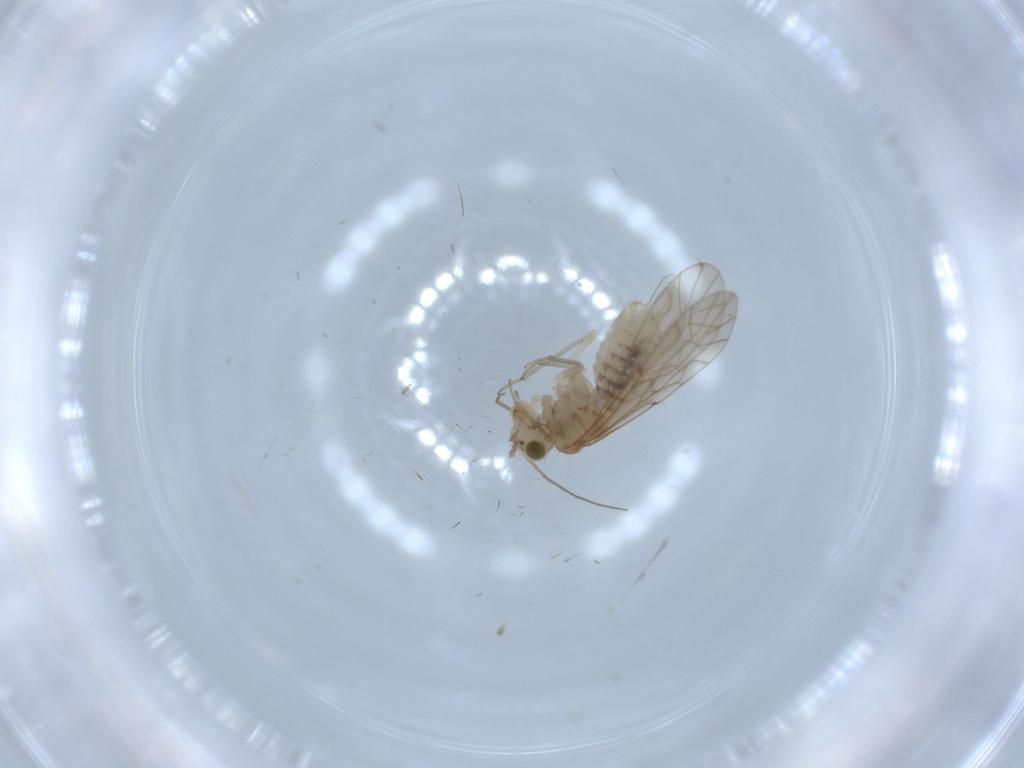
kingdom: Animalia
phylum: Arthropoda
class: Insecta
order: Psocodea
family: Lachesillidae
